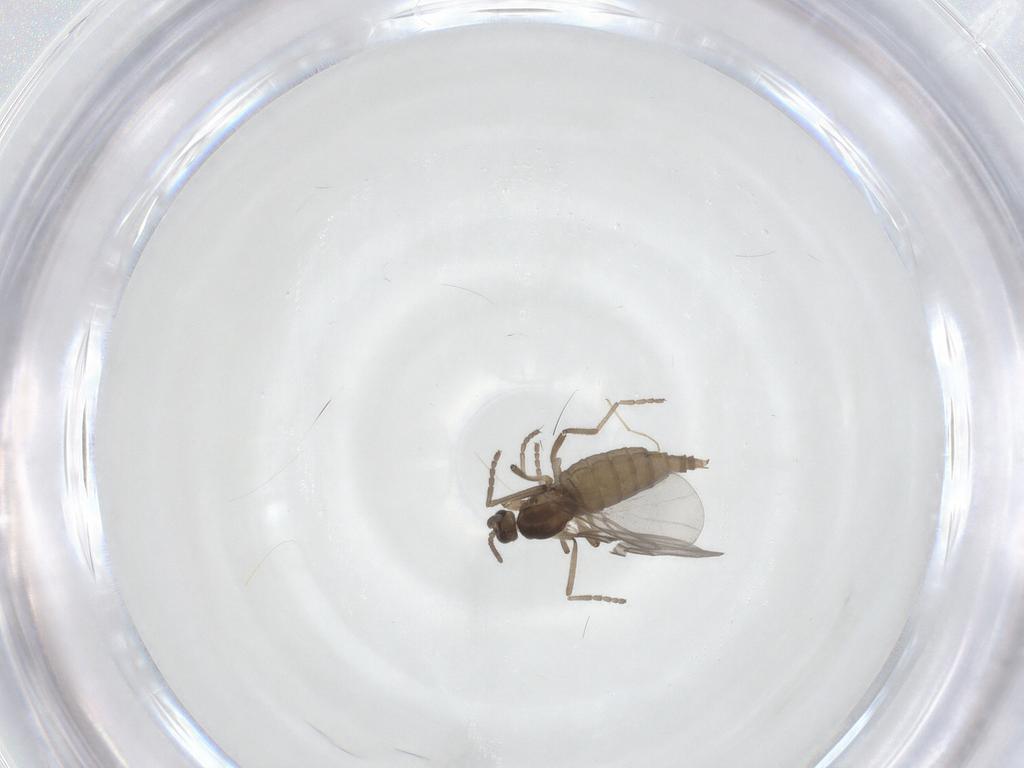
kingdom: Animalia
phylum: Arthropoda
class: Insecta
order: Diptera
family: Chironomidae
